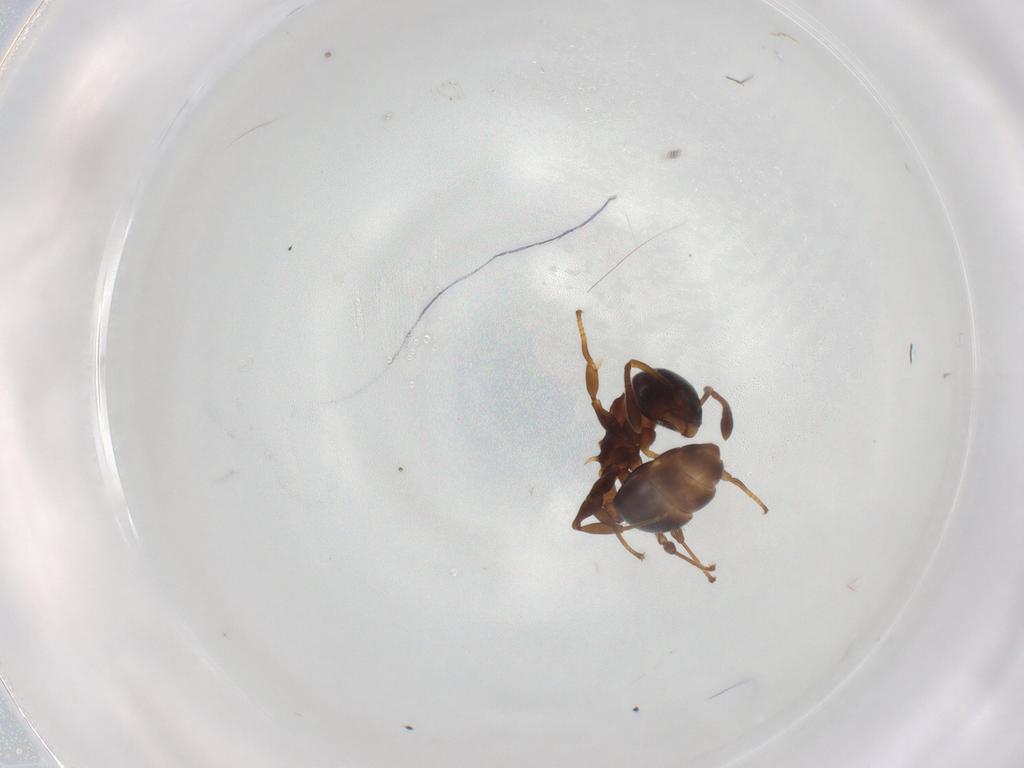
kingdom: Animalia
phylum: Arthropoda
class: Insecta
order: Hymenoptera
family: Formicidae
